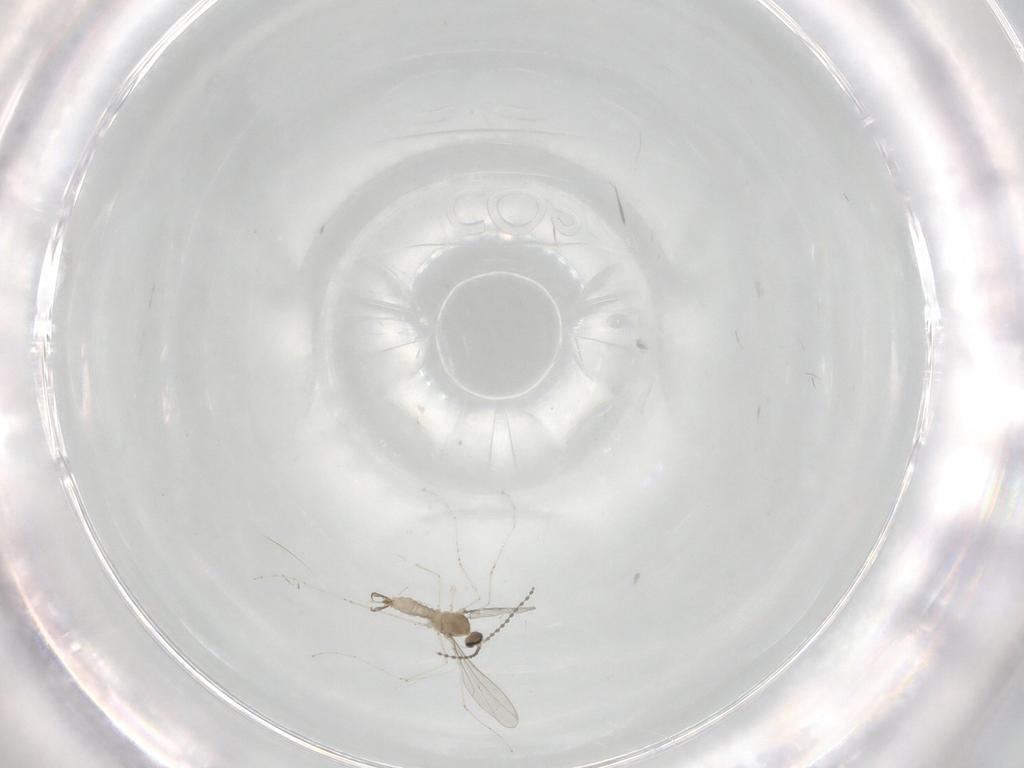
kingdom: Animalia
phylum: Arthropoda
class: Insecta
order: Diptera
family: Cecidomyiidae
